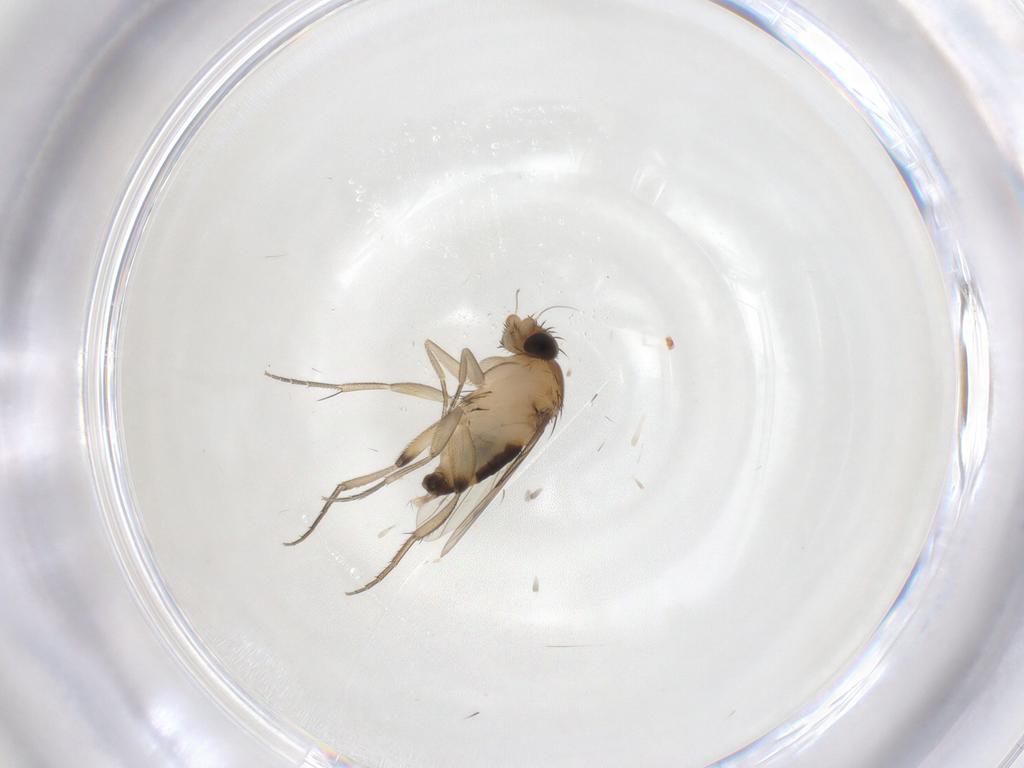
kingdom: Animalia
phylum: Arthropoda
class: Insecta
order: Diptera
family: Phoridae
